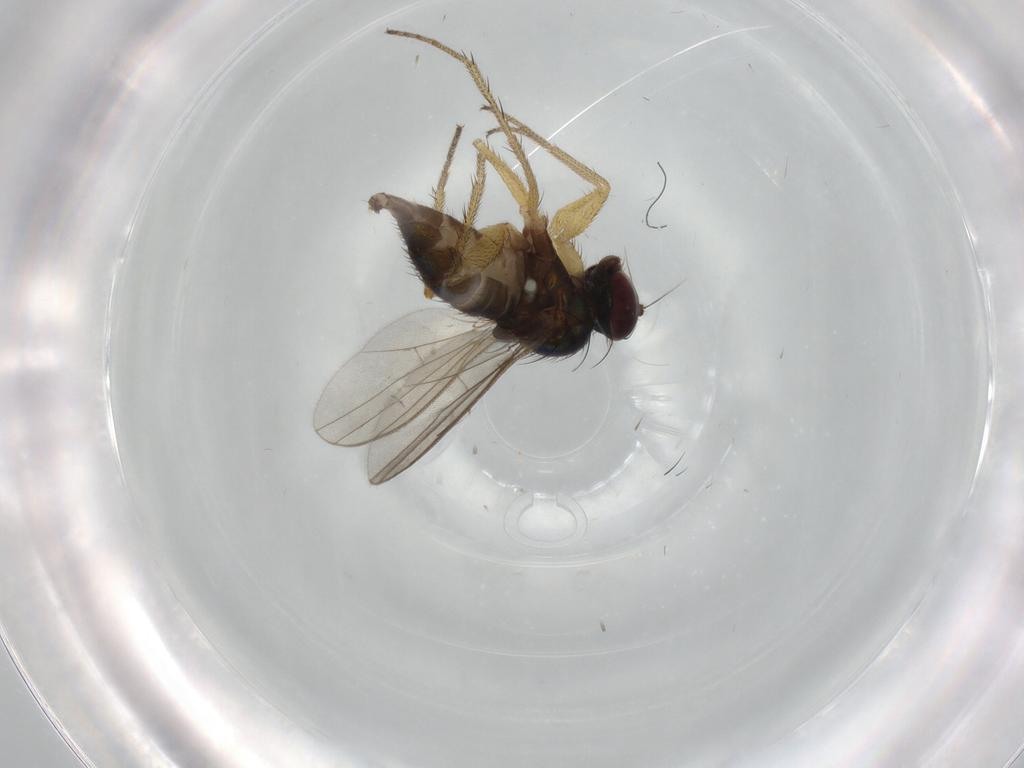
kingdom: Animalia
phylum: Arthropoda
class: Insecta
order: Diptera
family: Dolichopodidae
